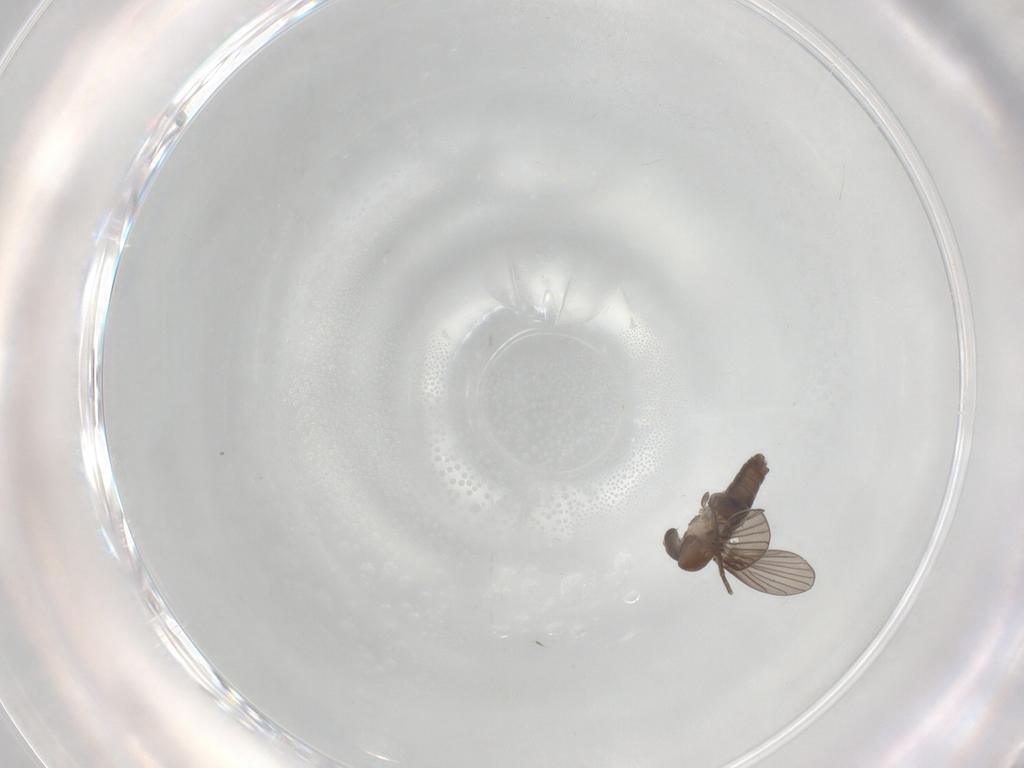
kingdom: Animalia
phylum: Arthropoda
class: Insecta
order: Diptera
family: Psychodidae
